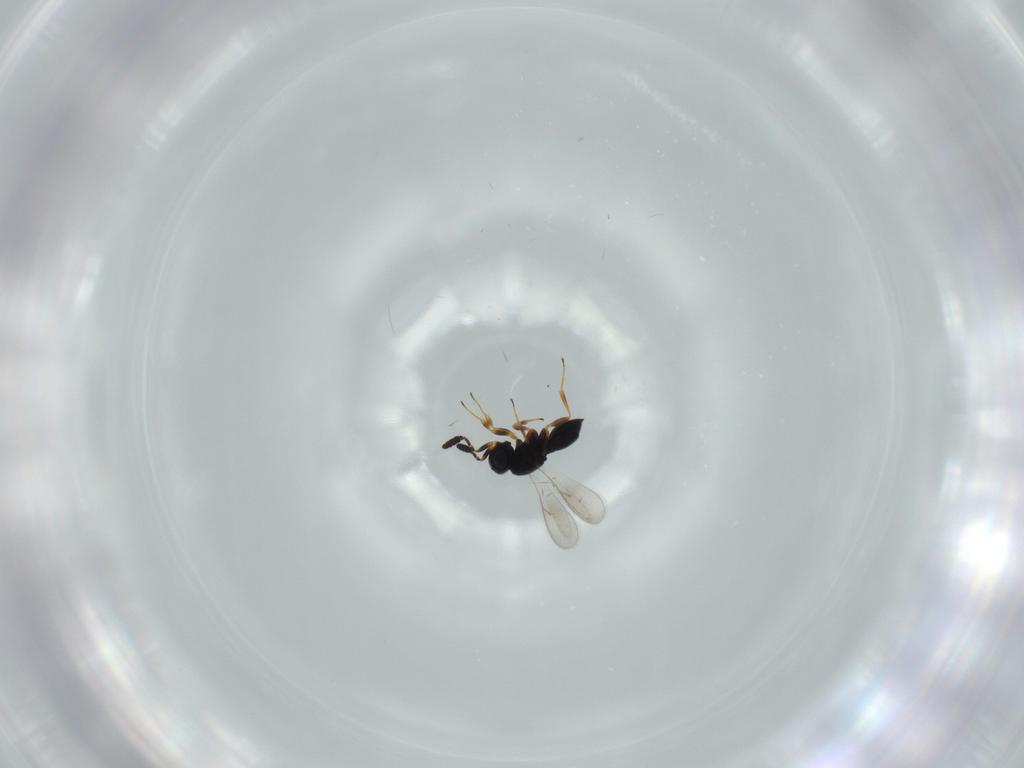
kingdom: Animalia
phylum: Arthropoda
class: Insecta
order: Hymenoptera
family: Scelionidae
